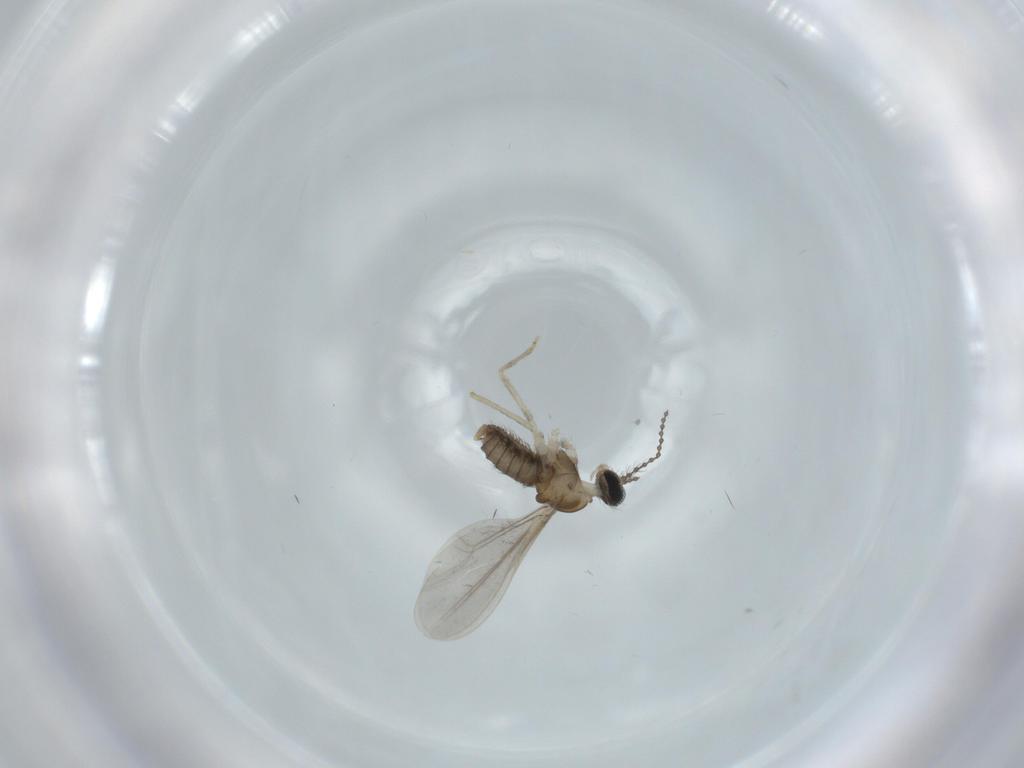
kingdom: Animalia
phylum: Arthropoda
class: Insecta
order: Diptera
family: Cecidomyiidae
